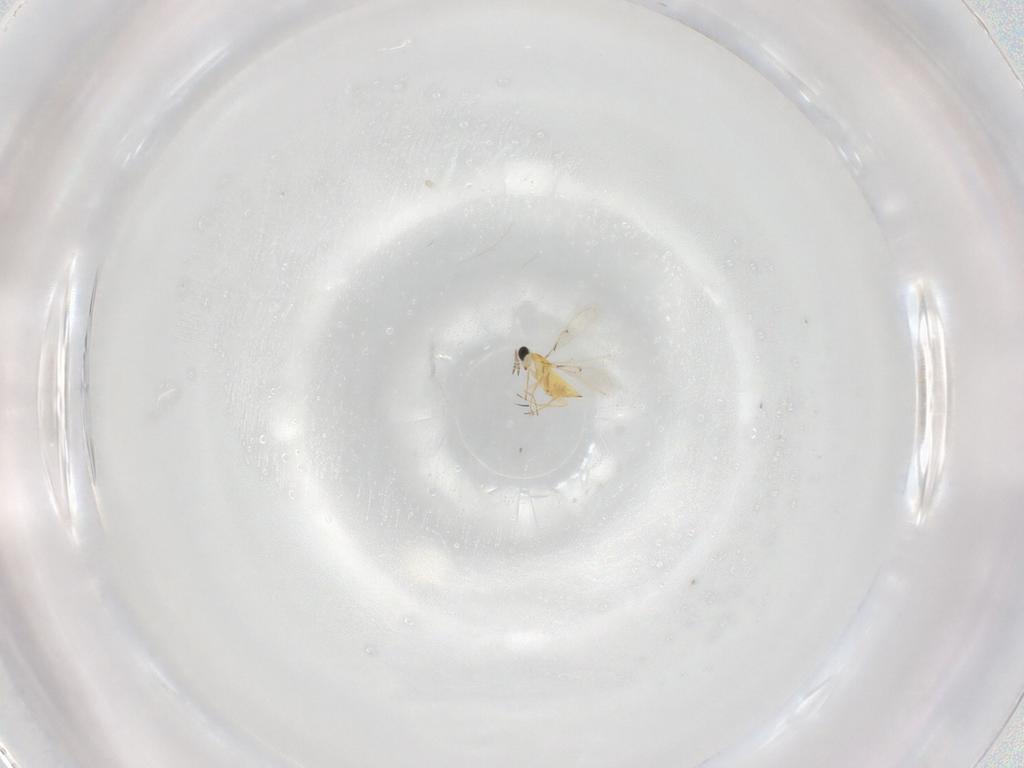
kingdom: Animalia
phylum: Arthropoda
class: Insecta
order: Hymenoptera
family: Trichogrammatidae
